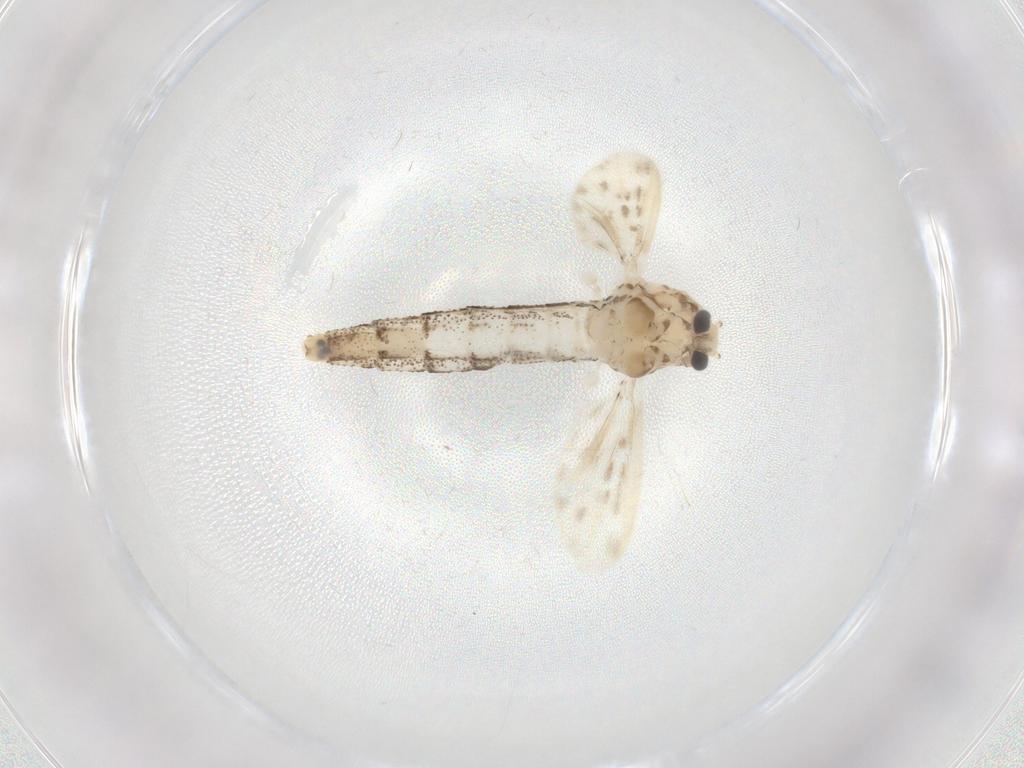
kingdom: Animalia
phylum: Arthropoda
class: Insecta
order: Diptera
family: Chaoboridae
